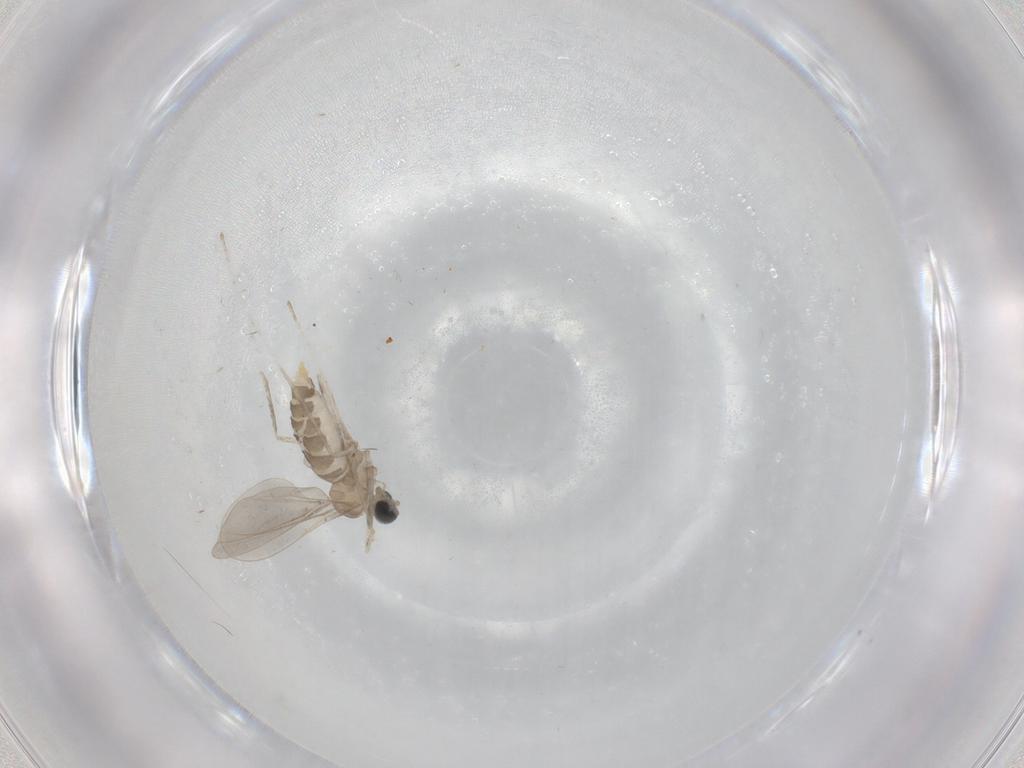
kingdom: Animalia
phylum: Arthropoda
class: Insecta
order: Diptera
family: Cecidomyiidae
